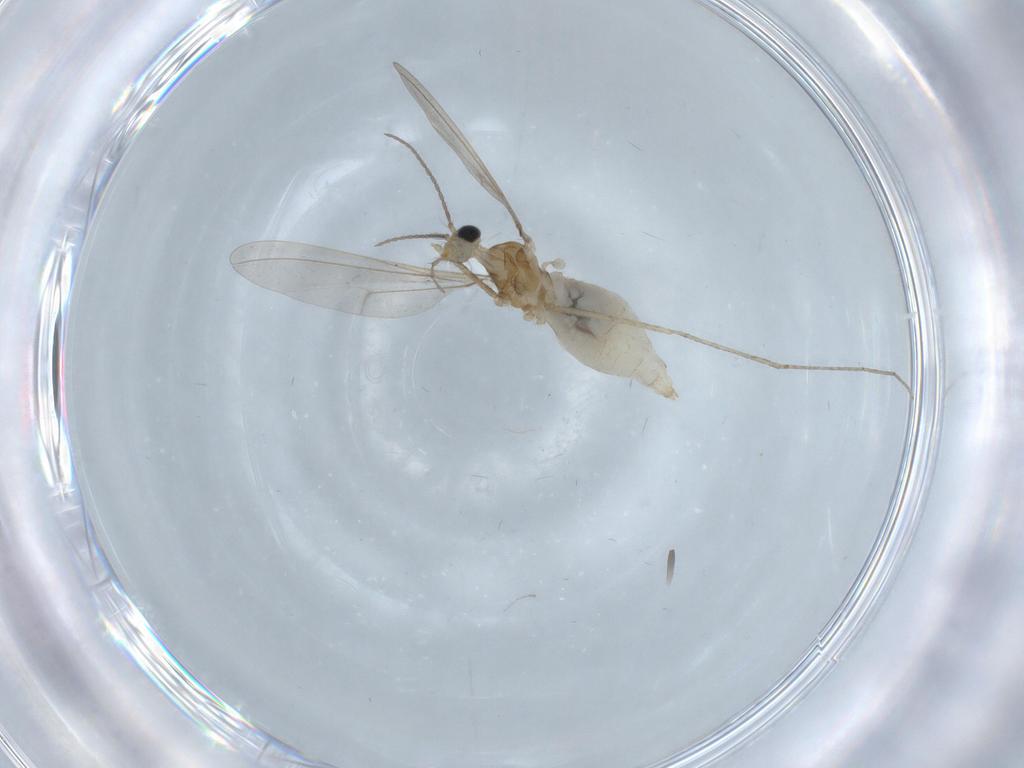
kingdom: Animalia
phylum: Arthropoda
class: Insecta
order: Diptera
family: Cecidomyiidae
